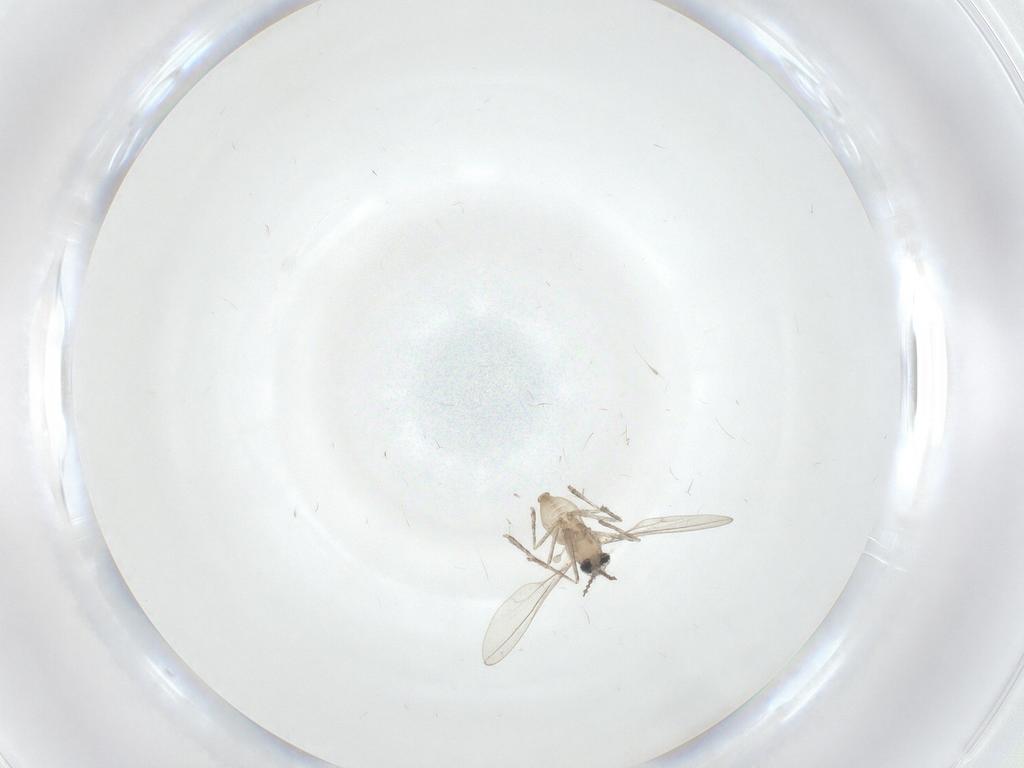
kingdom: Animalia
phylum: Arthropoda
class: Insecta
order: Diptera
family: Cecidomyiidae
